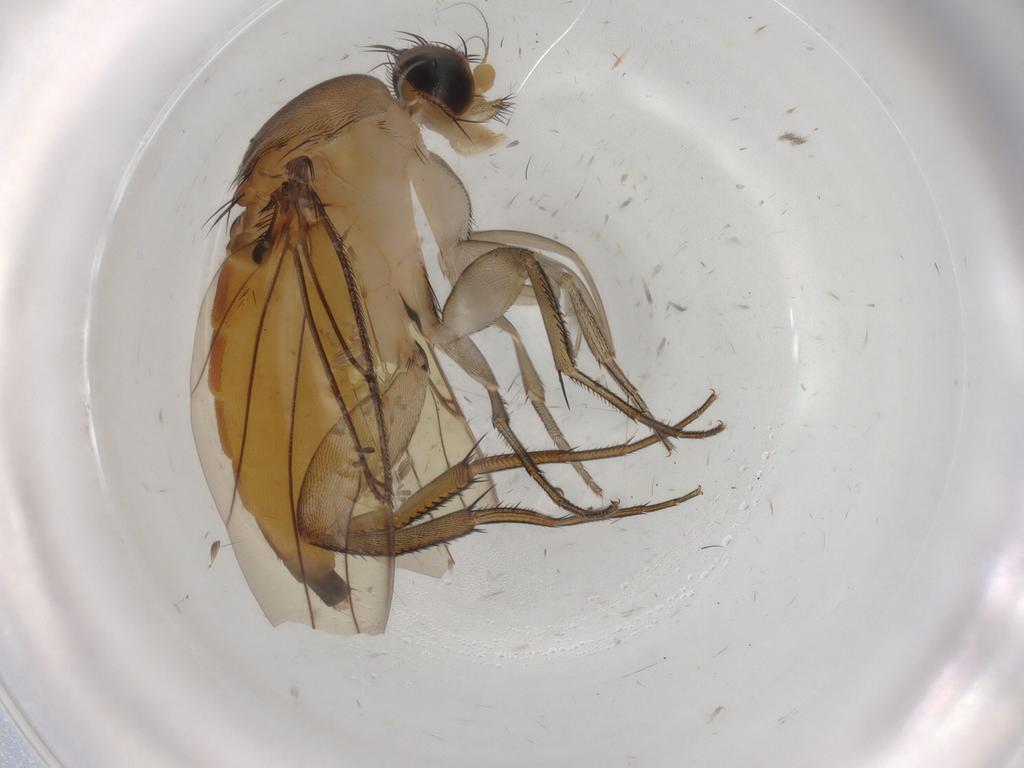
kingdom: Animalia
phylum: Arthropoda
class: Insecta
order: Diptera
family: Phoridae
